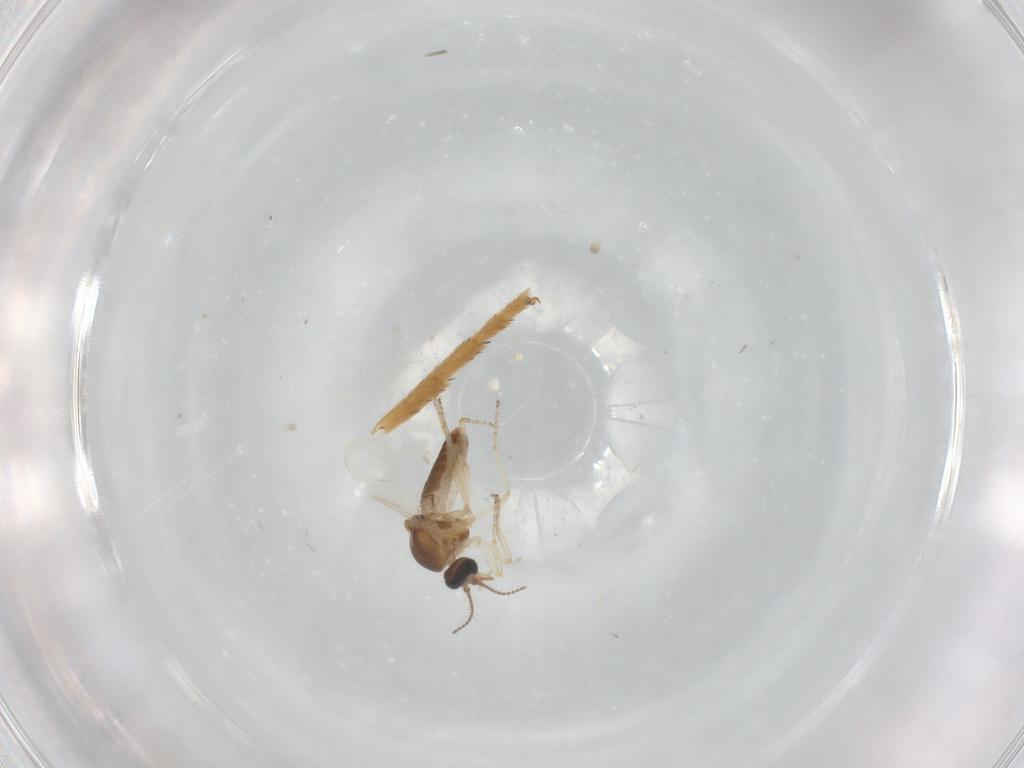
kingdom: Animalia
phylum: Arthropoda
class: Insecta
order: Diptera
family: Ceratopogonidae
